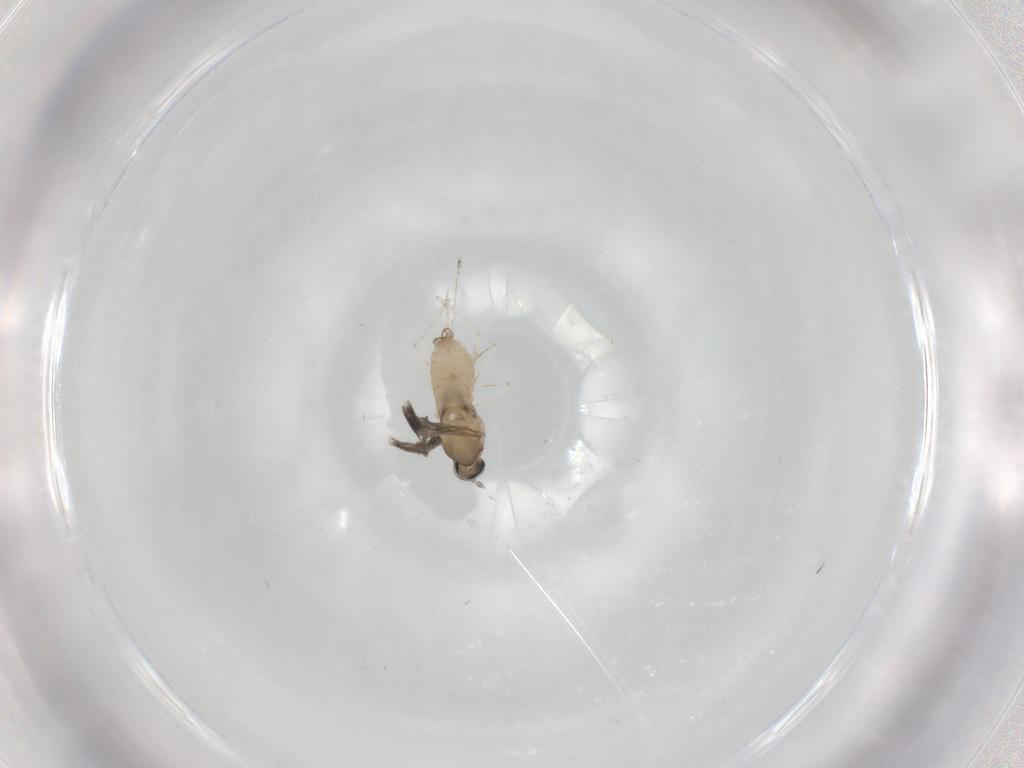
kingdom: Animalia
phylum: Arthropoda
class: Insecta
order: Diptera
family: Cecidomyiidae
